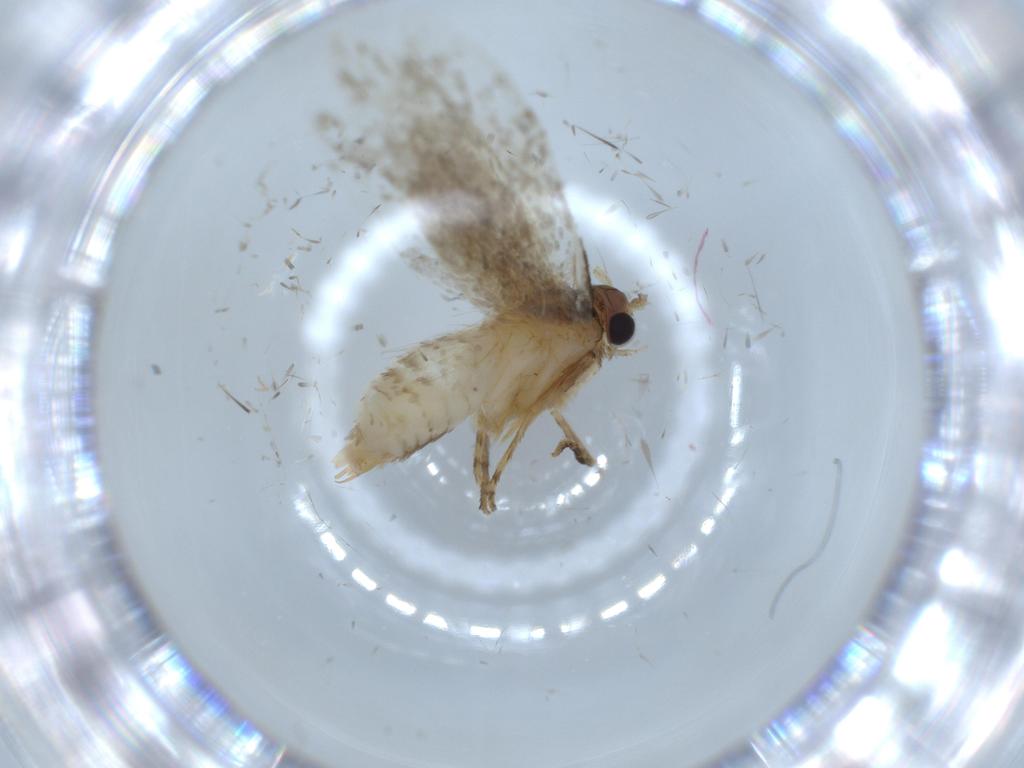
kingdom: Animalia
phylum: Arthropoda
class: Insecta
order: Lepidoptera
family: Tineidae
